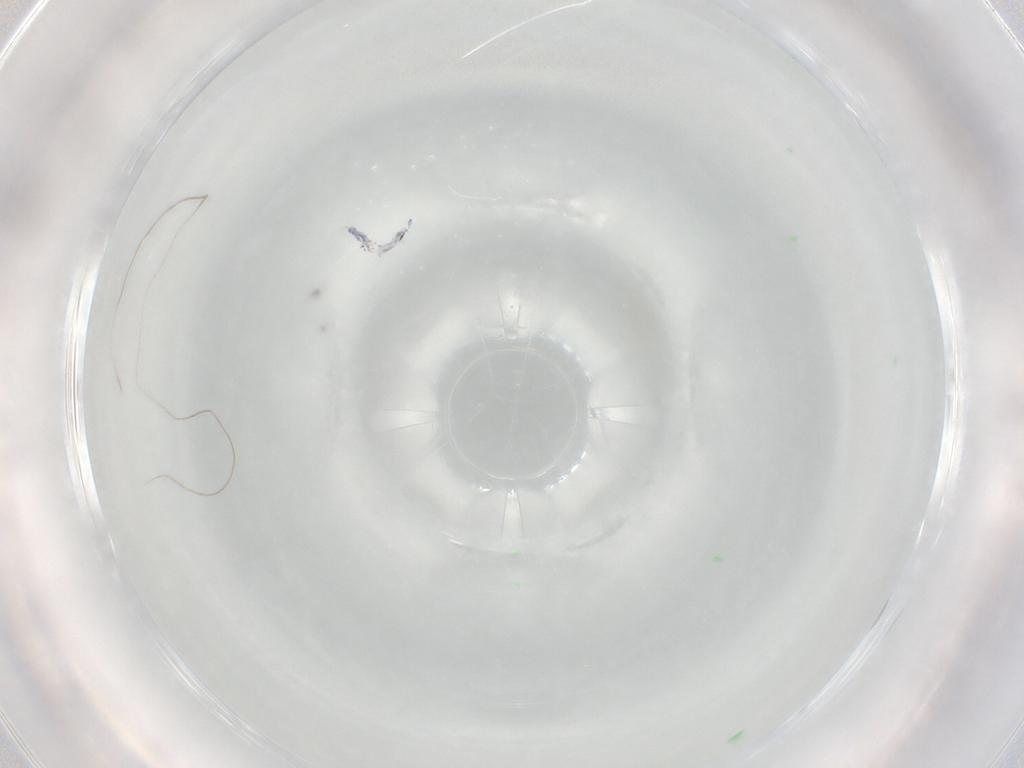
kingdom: Animalia
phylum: Arthropoda
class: Collembola
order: Entomobryomorpha
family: Entomobryidae
